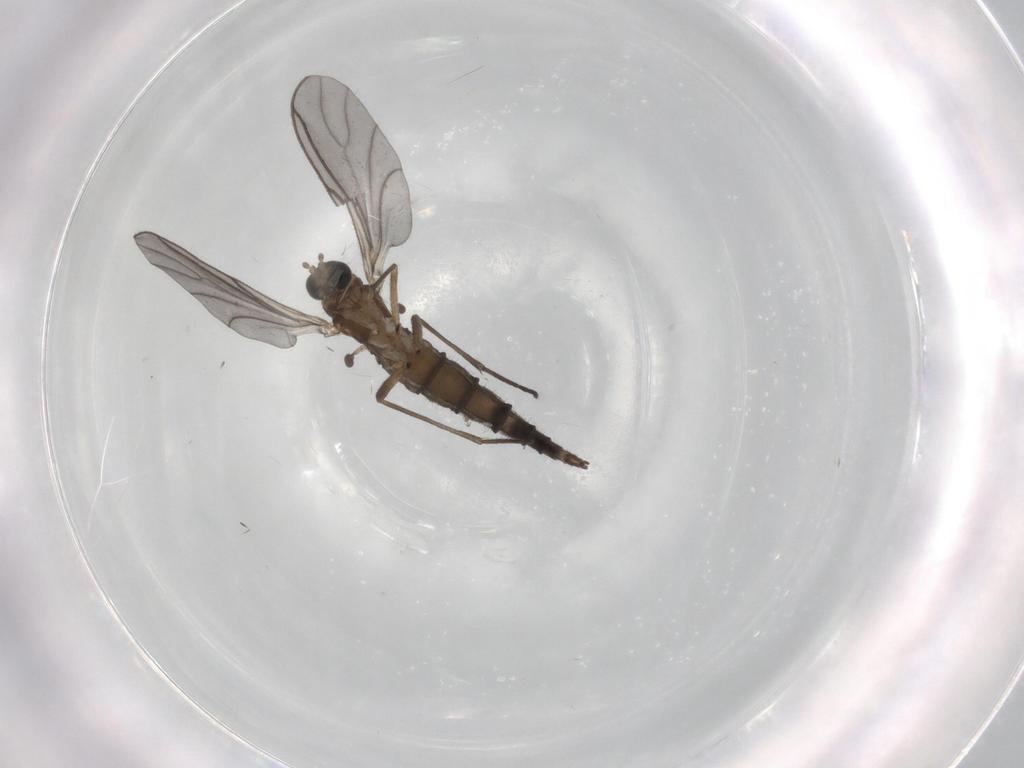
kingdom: Animalia
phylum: Arthropoda
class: Insecta
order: Diptera
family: Sciaridae
